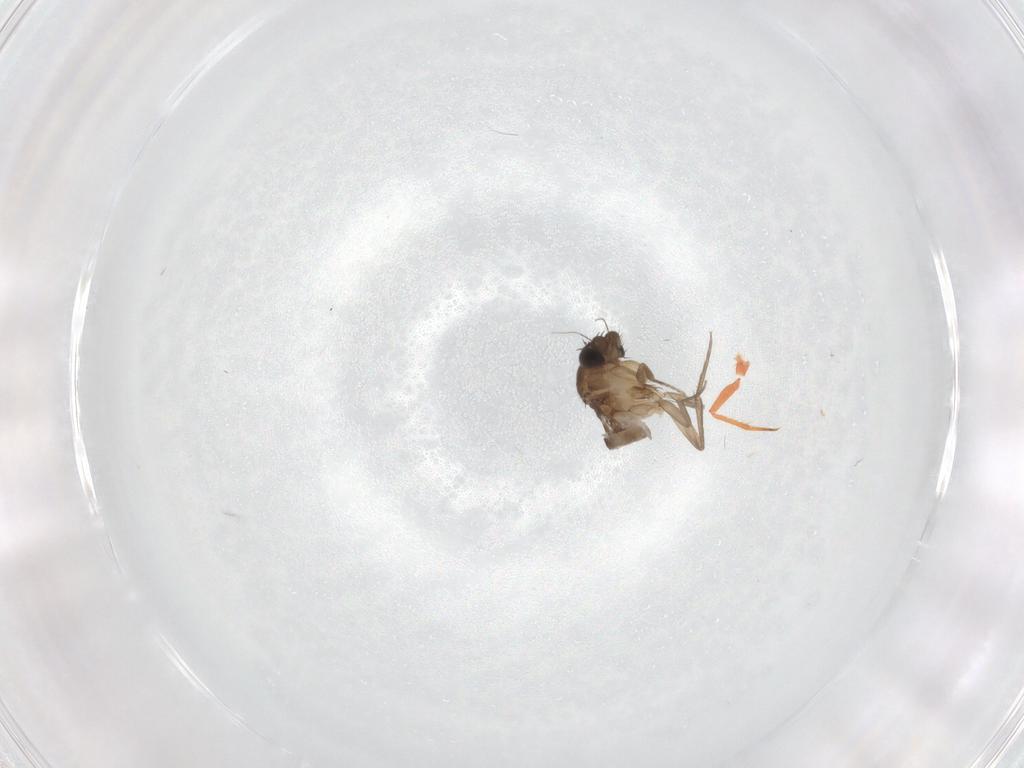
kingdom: Animalia
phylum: Arthropoda
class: Insecta
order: Diptera
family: Phoridae
